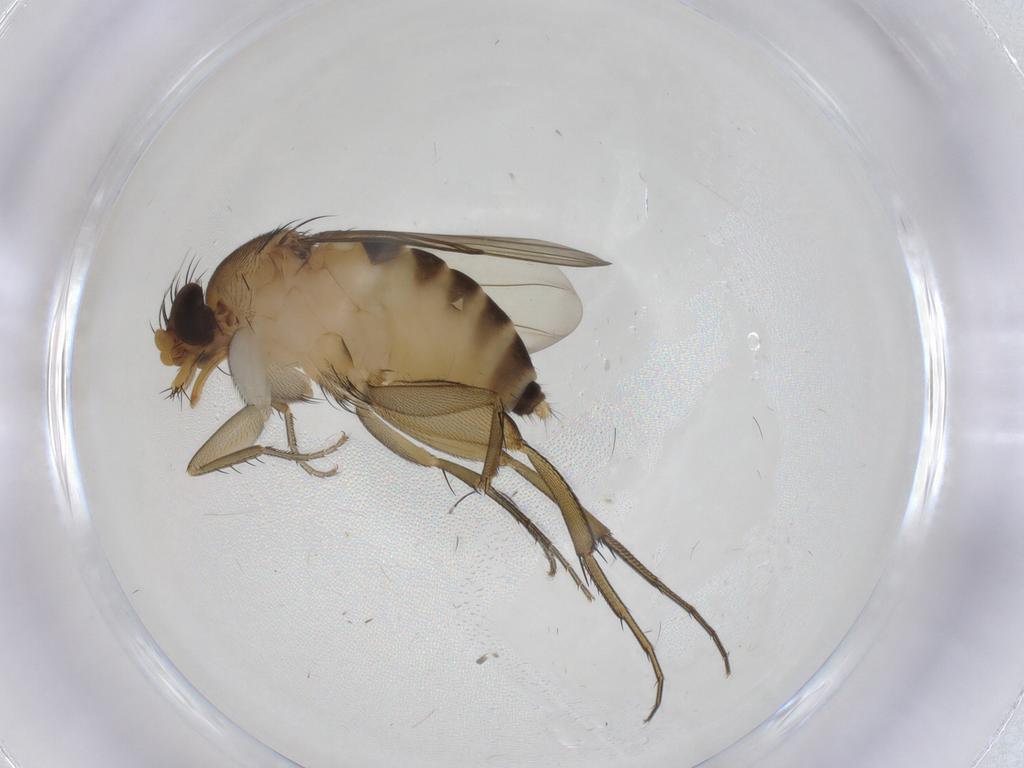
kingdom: Animalia
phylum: Arthropoda
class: Insecta
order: Diptera
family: Phoridae
